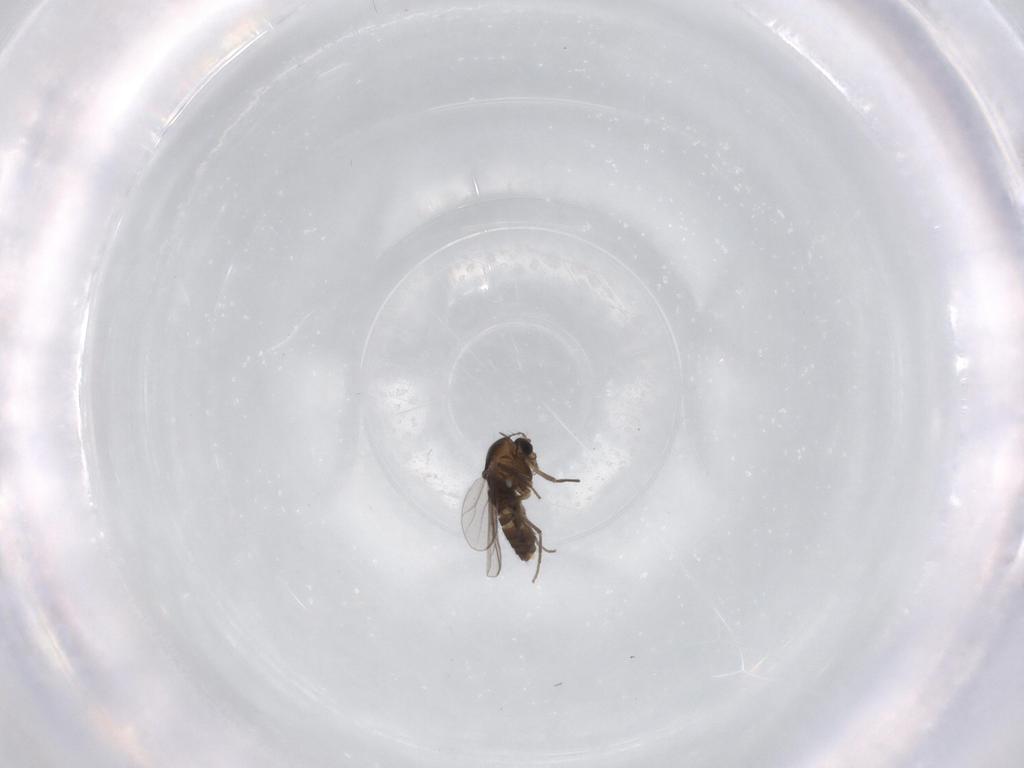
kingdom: Animalia
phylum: Arthropoda
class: Insecta
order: Diptera
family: Chironomidae
